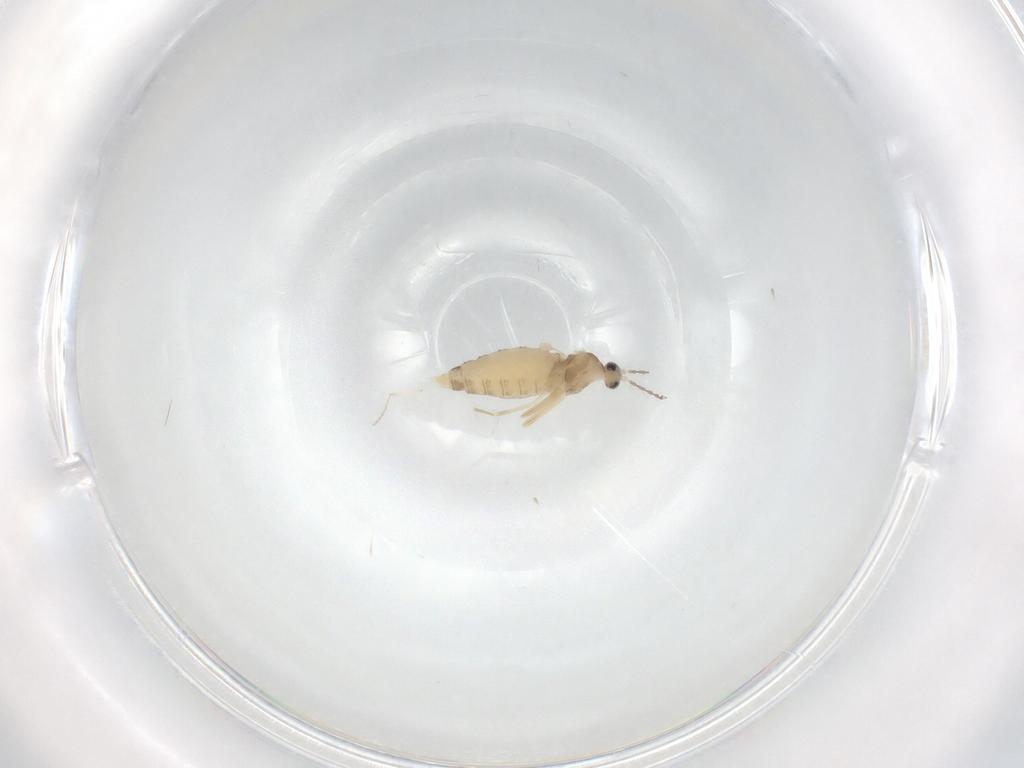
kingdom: Animalia
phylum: Arthropoda
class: Insecta
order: Diptera
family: Cecidomyiidae
